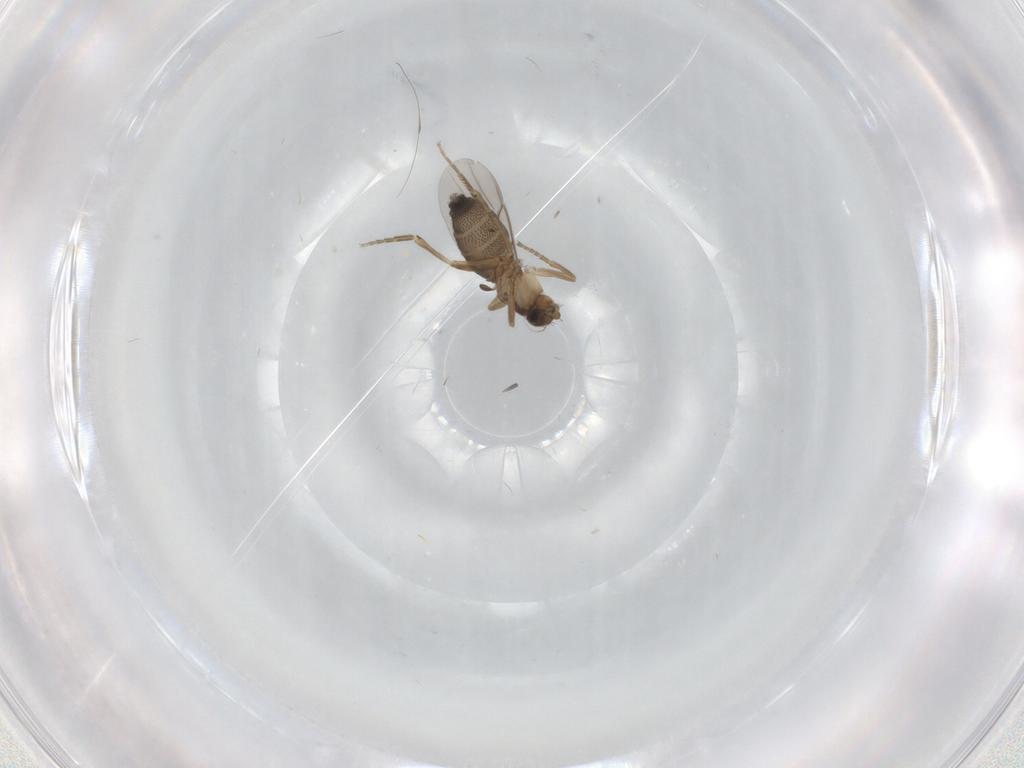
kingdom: Animalia
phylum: Arthropoda
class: Insecta
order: Diptera
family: Phoridae
